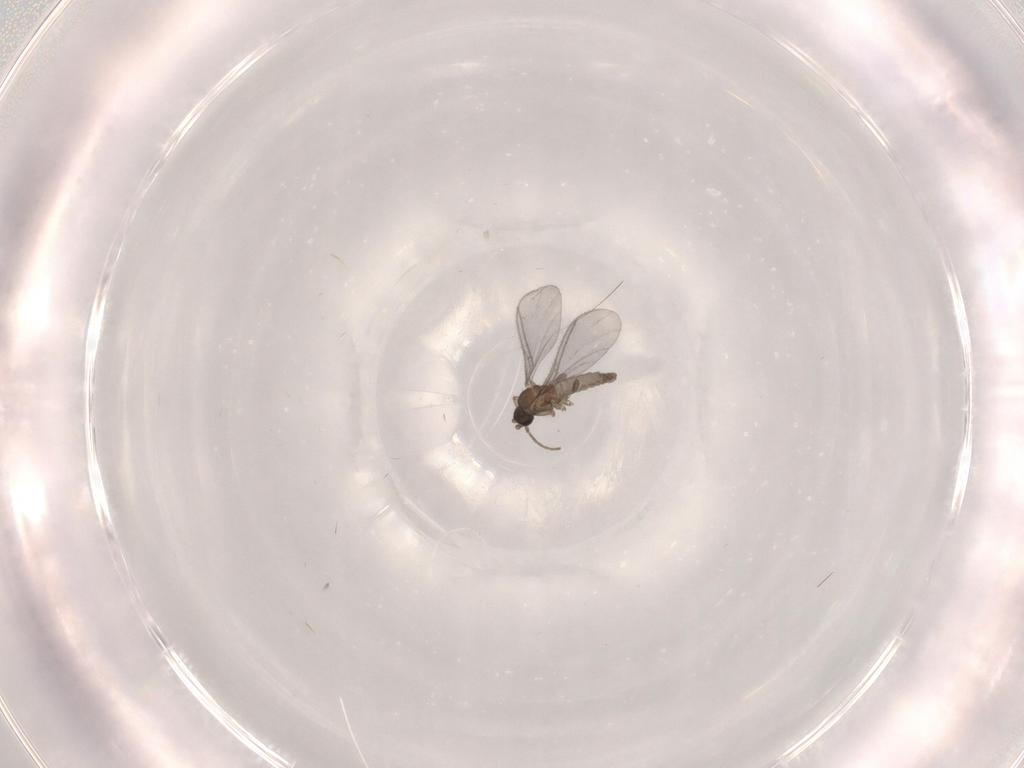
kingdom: Animalia
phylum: Arthropoda
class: Insecta
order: Diptera
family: Sciaridae
